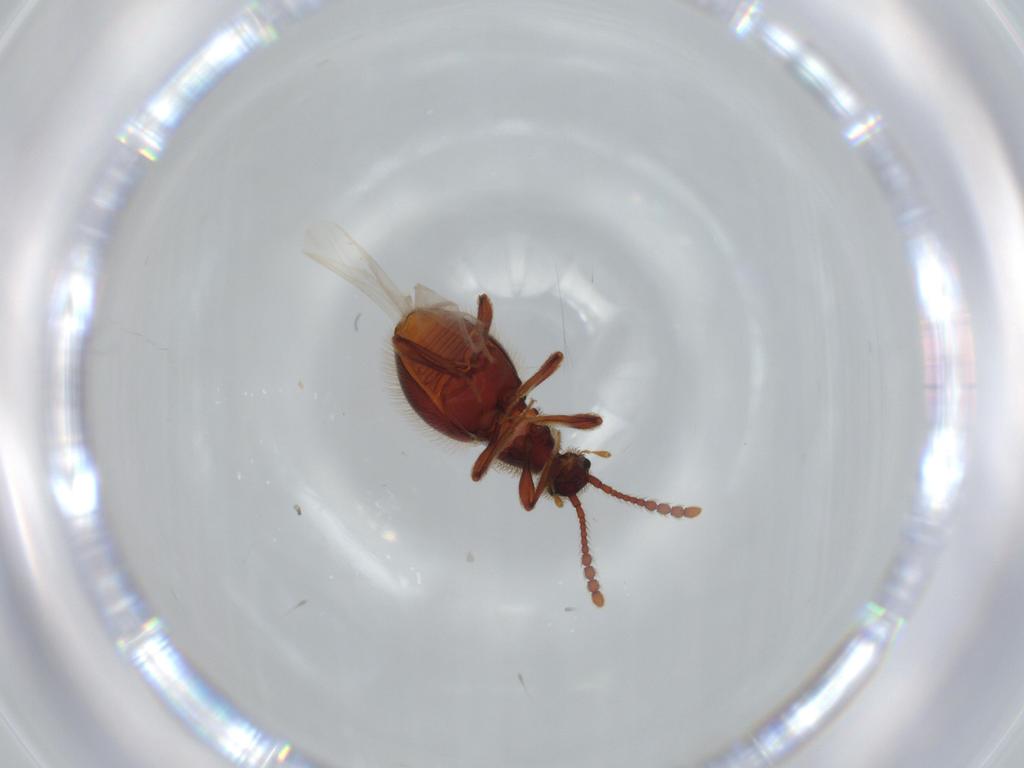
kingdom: Animalia
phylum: Arthropoda
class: Insecta
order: Coleoptera
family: Staphylinidae
